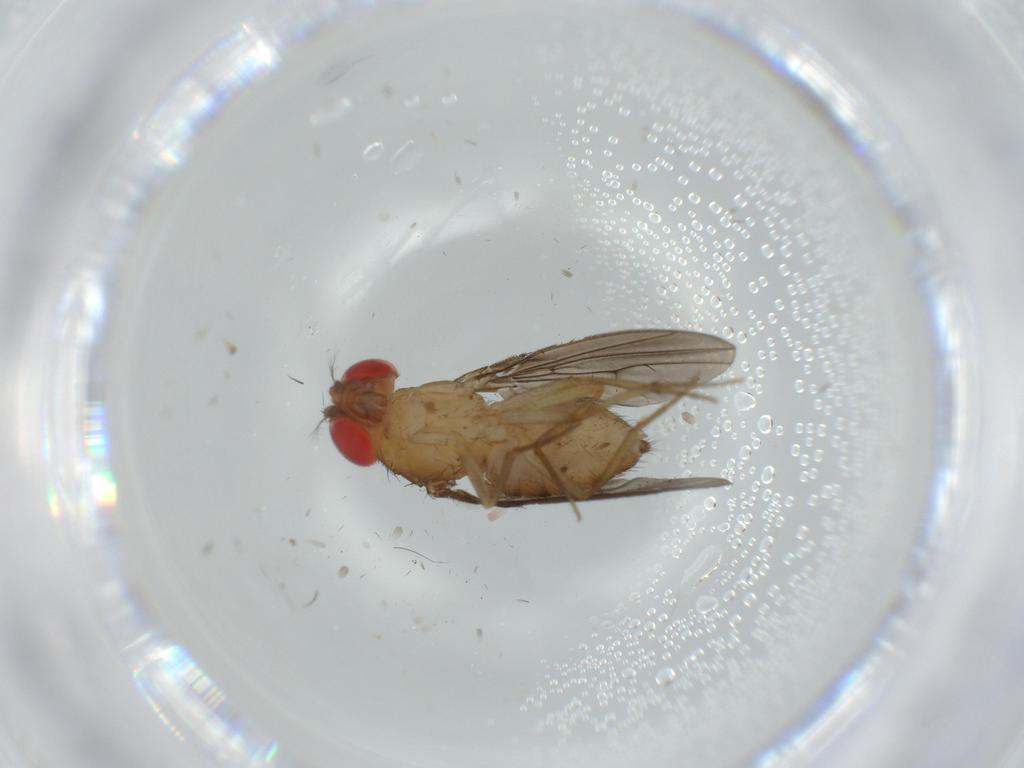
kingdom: Animalia
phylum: Arthropoda
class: Insecta
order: Diptera
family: Drosophilidae
